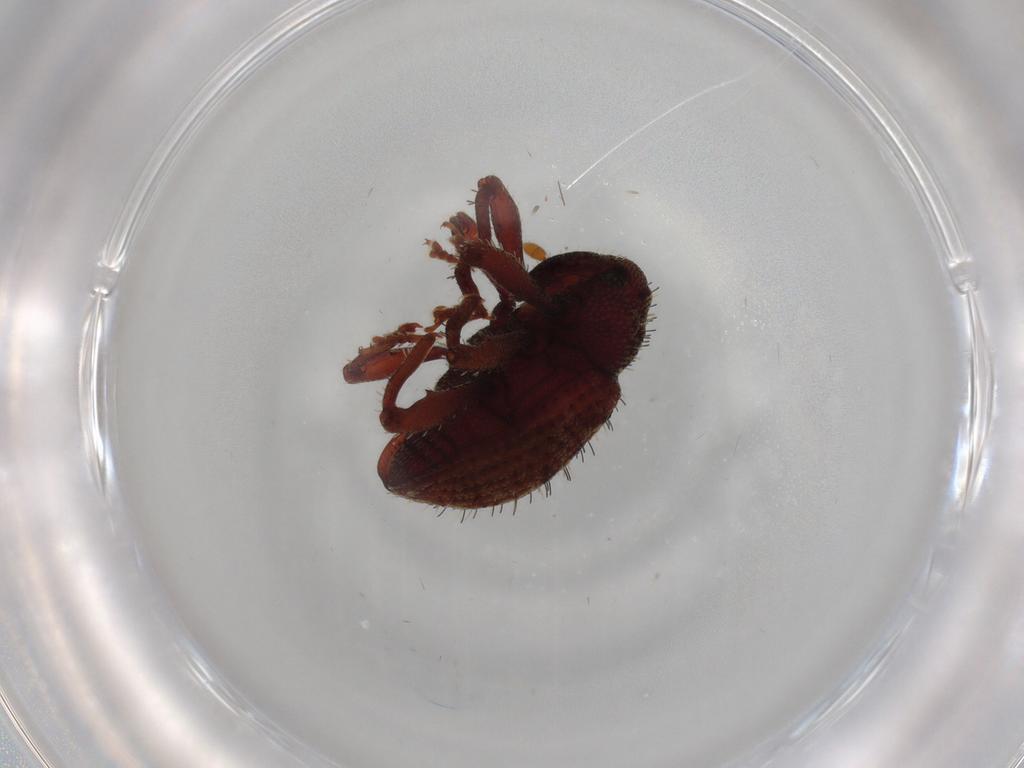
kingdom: Animalia
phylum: Arthropoda
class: Insecta
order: Coleoptera
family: Curculionidae
